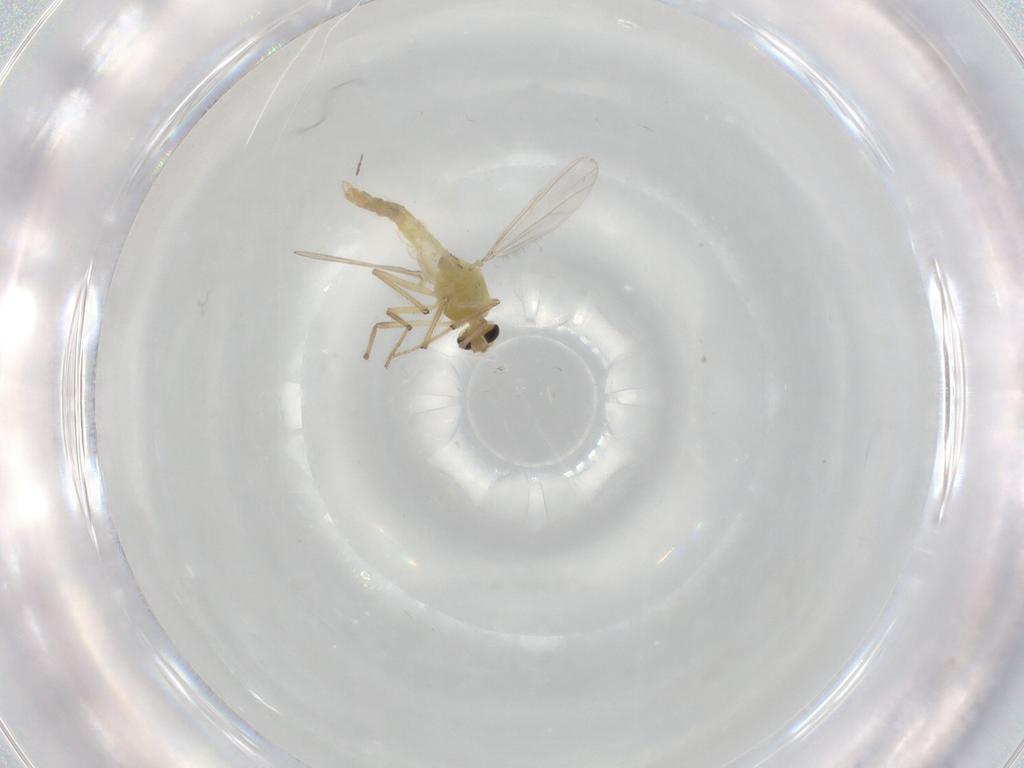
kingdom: Animalia
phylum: Arthropoda
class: Insecta
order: Diptera
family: Chironomidae
